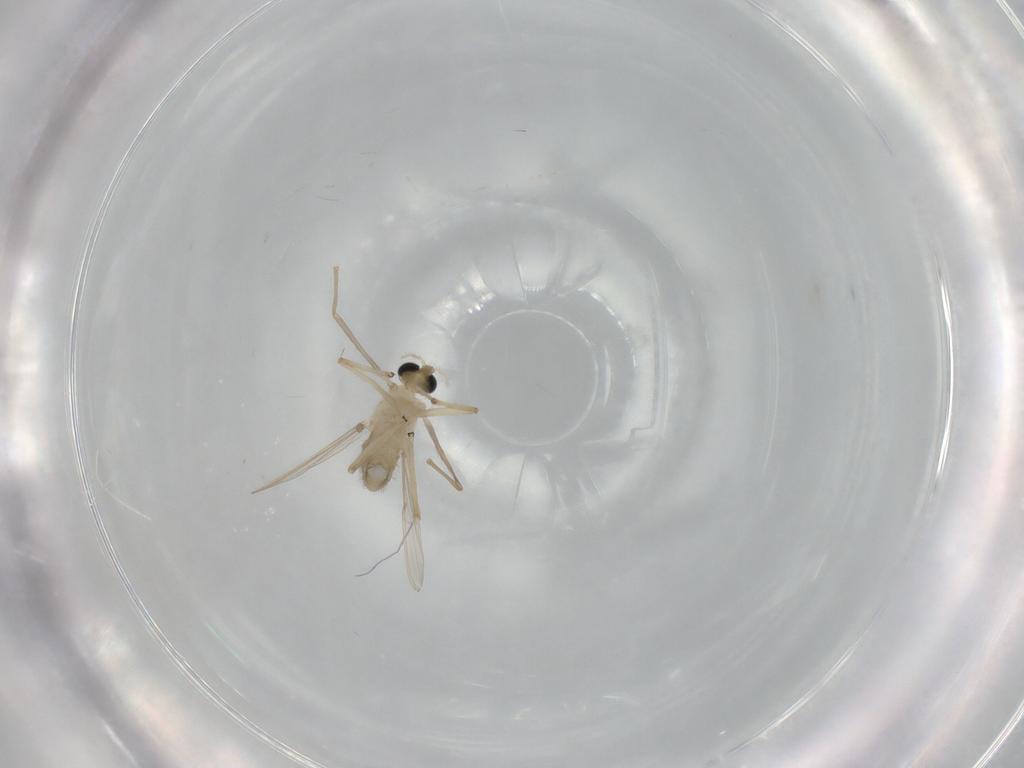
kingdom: Animalia
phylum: Arthropoda
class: Insecta
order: Diptera
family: Chironomidae
